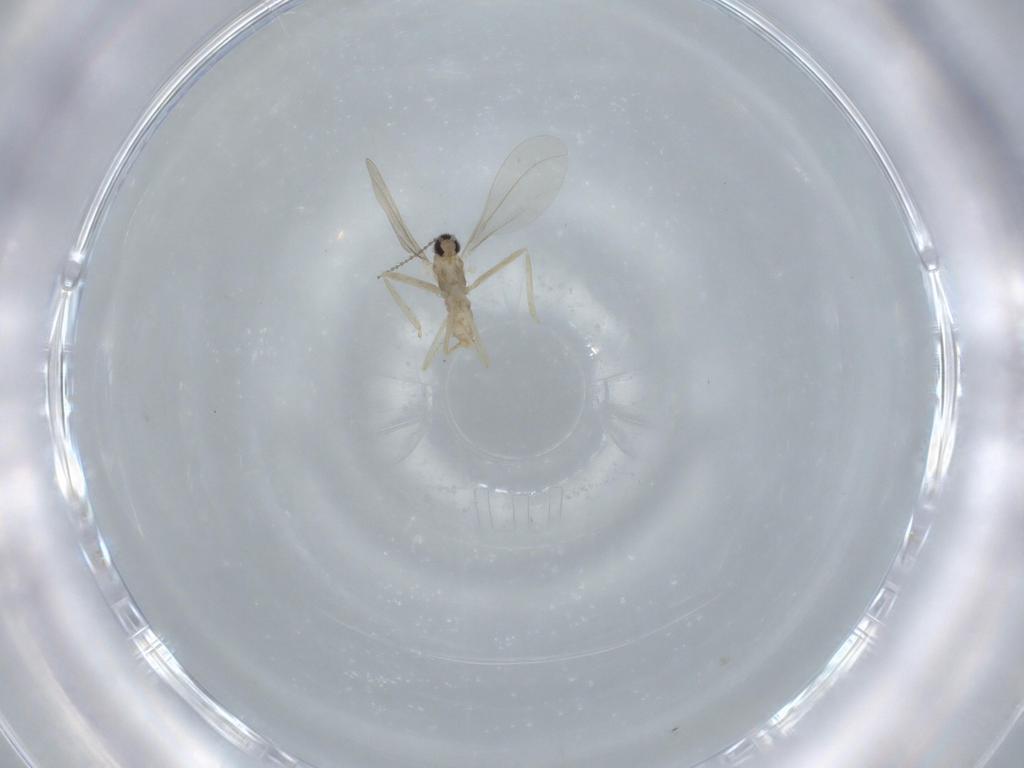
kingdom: Animalia
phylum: Arthropoda
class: Insecta
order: Diptera
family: Cecidomyiidae
